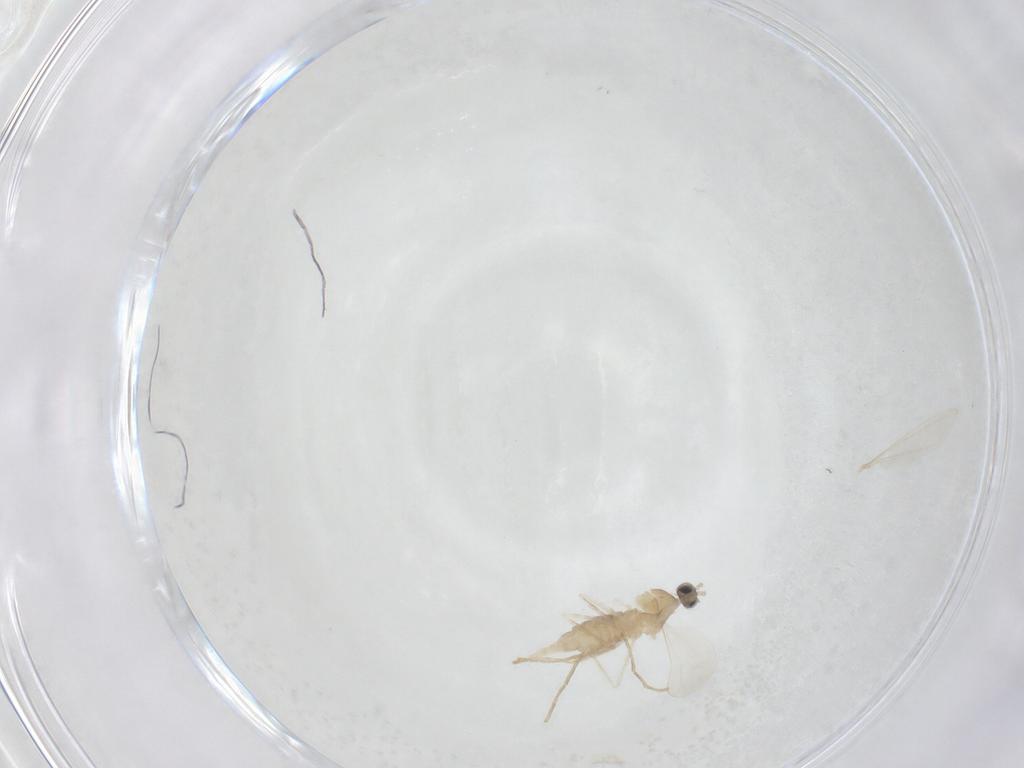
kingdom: Animalia
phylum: Arthropoda
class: Insecta
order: Diptera
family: Cecidomyiidae
